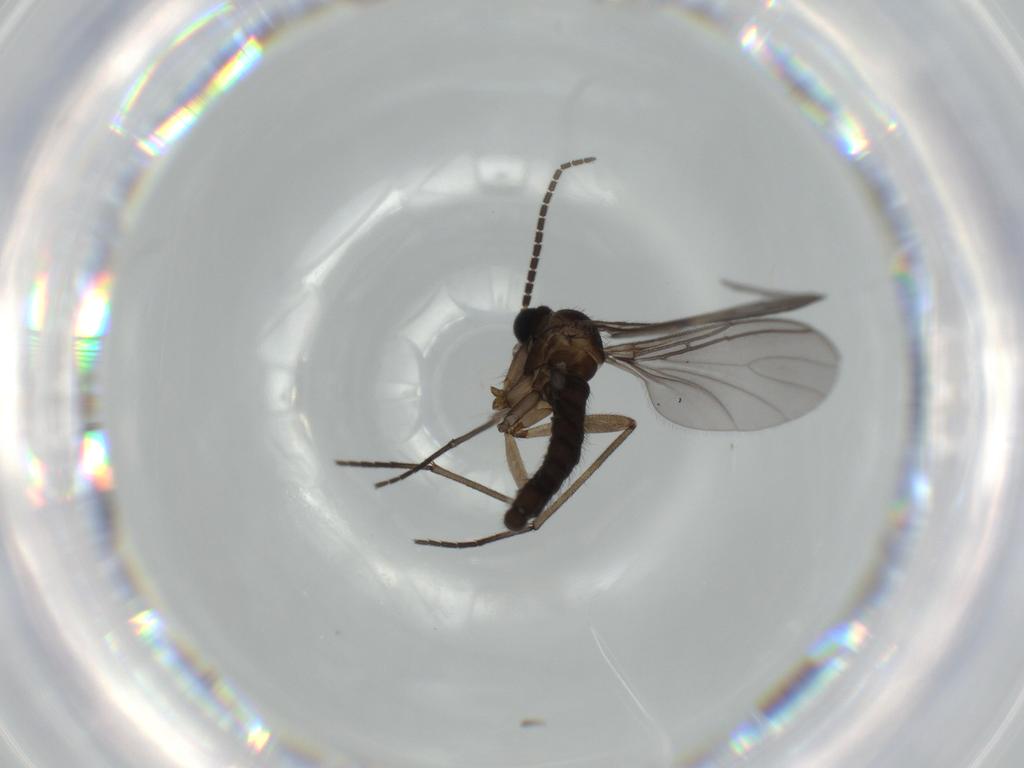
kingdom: Animalia
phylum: Arthropoda
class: Insecta
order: Diptera
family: Sciaridae
